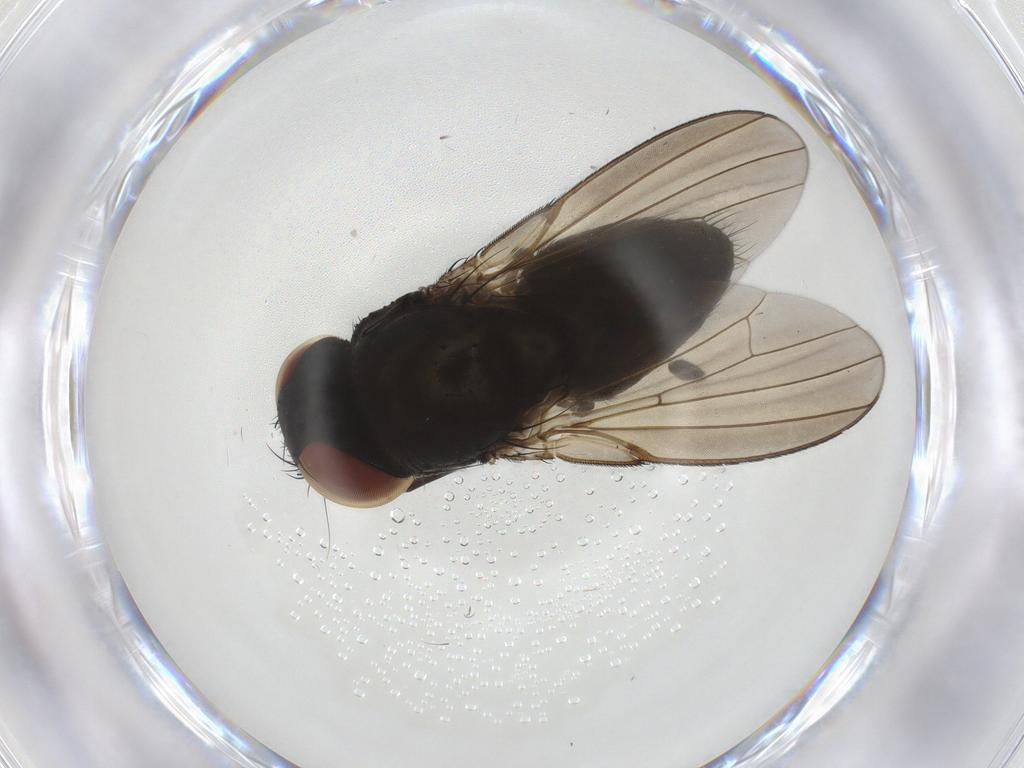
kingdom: Animalia
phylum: Arthropoda
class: Insecta
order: Diptera
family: Milichiidae
